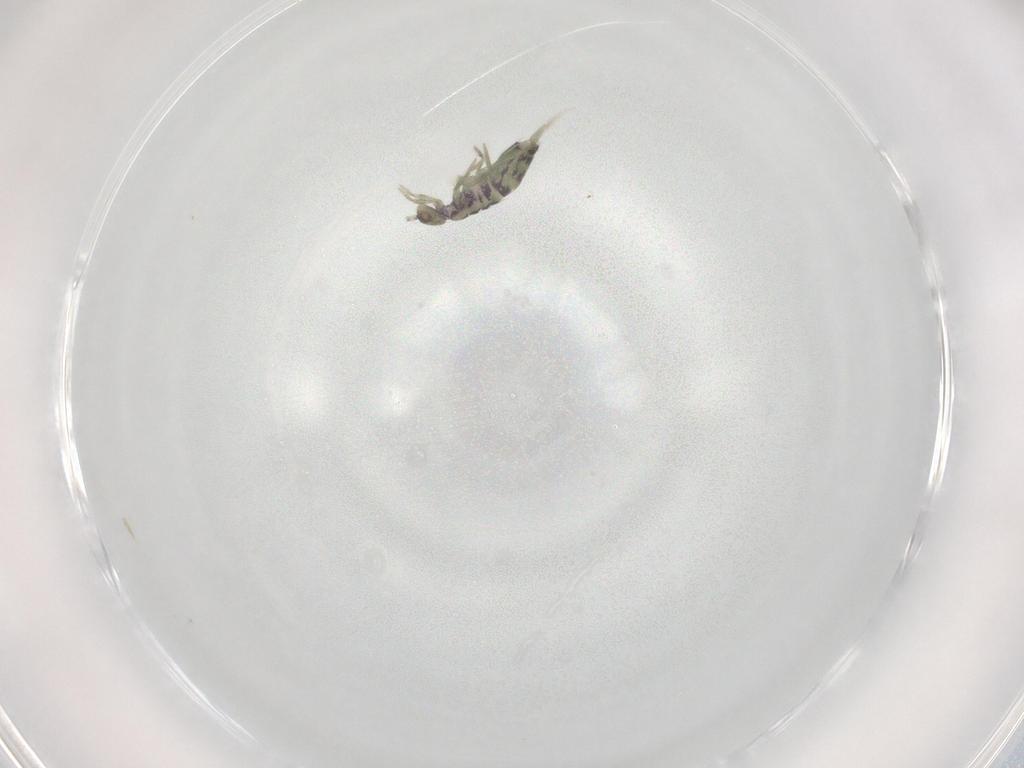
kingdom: Animalia
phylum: Arthropoda
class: Collembola
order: Entomobryomorpha
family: Entomobryidae
